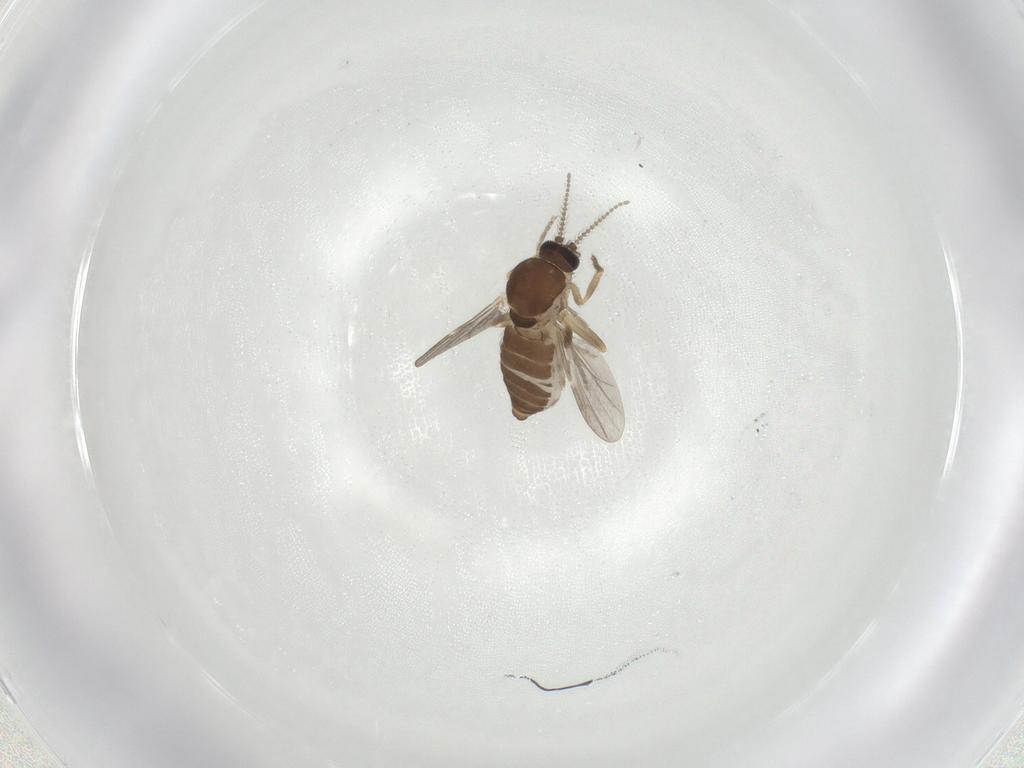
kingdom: Animalia
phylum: Arthropoda
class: Insecta
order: Diptera
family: Ceratopogonidae
